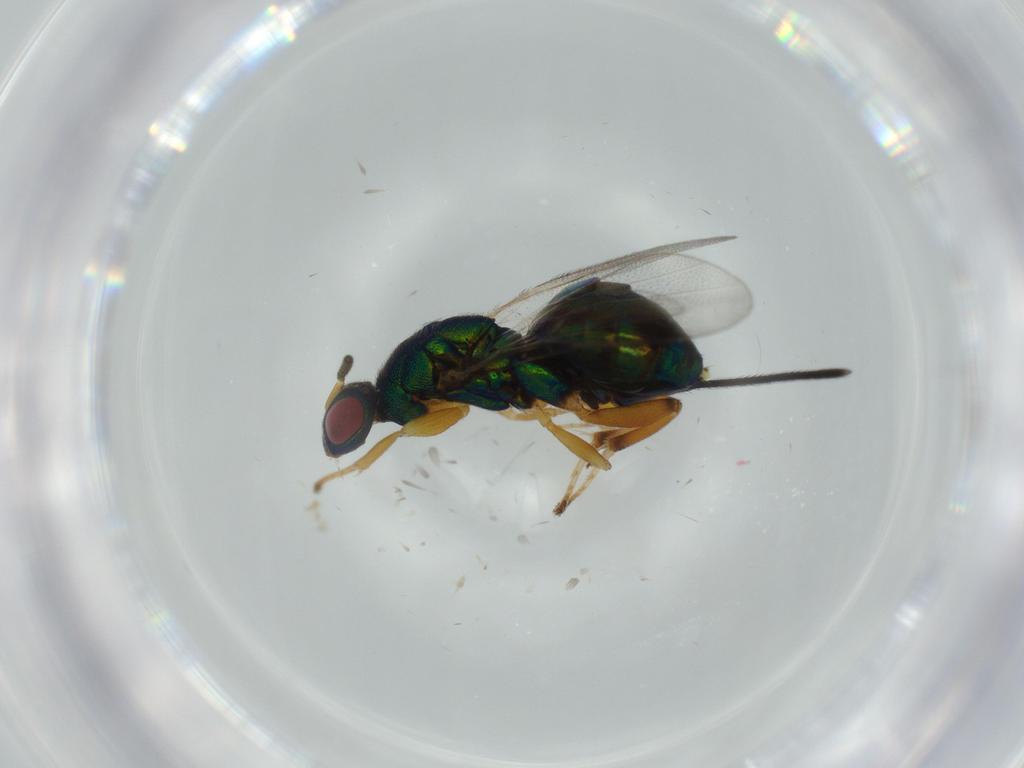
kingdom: Animalia
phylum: Arthropoda
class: Insecta
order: Hymenoptera
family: Torymidae
